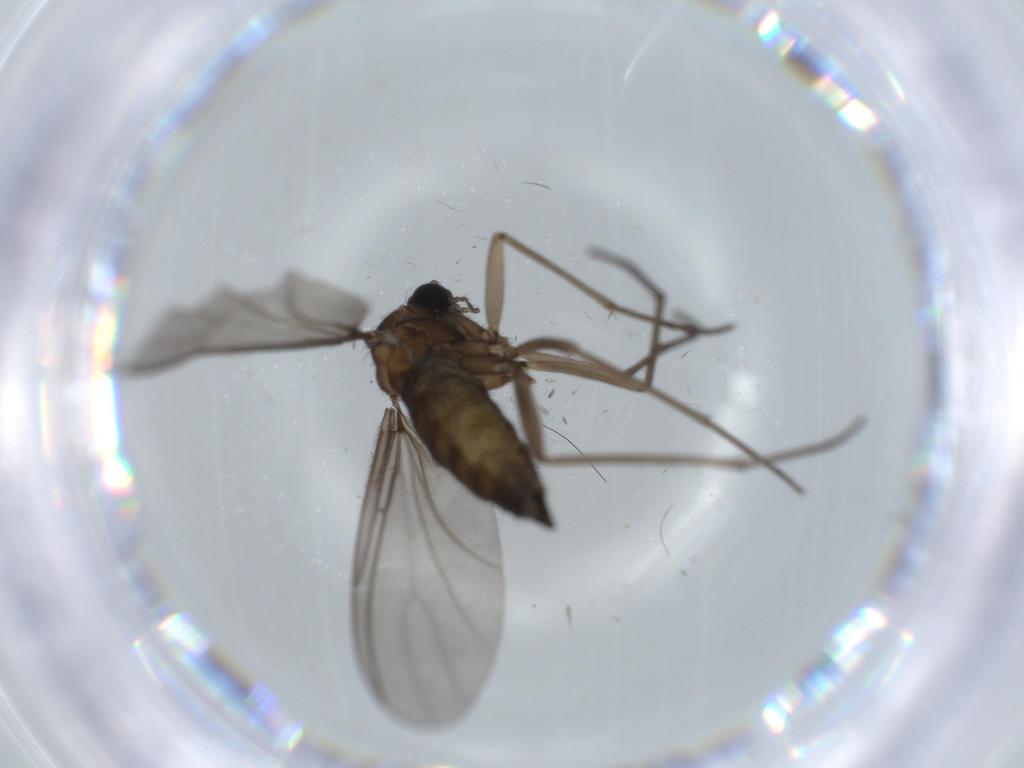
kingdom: Animalia
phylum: Arthropoda
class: Insecta
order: Diptera
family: Sciaridae
